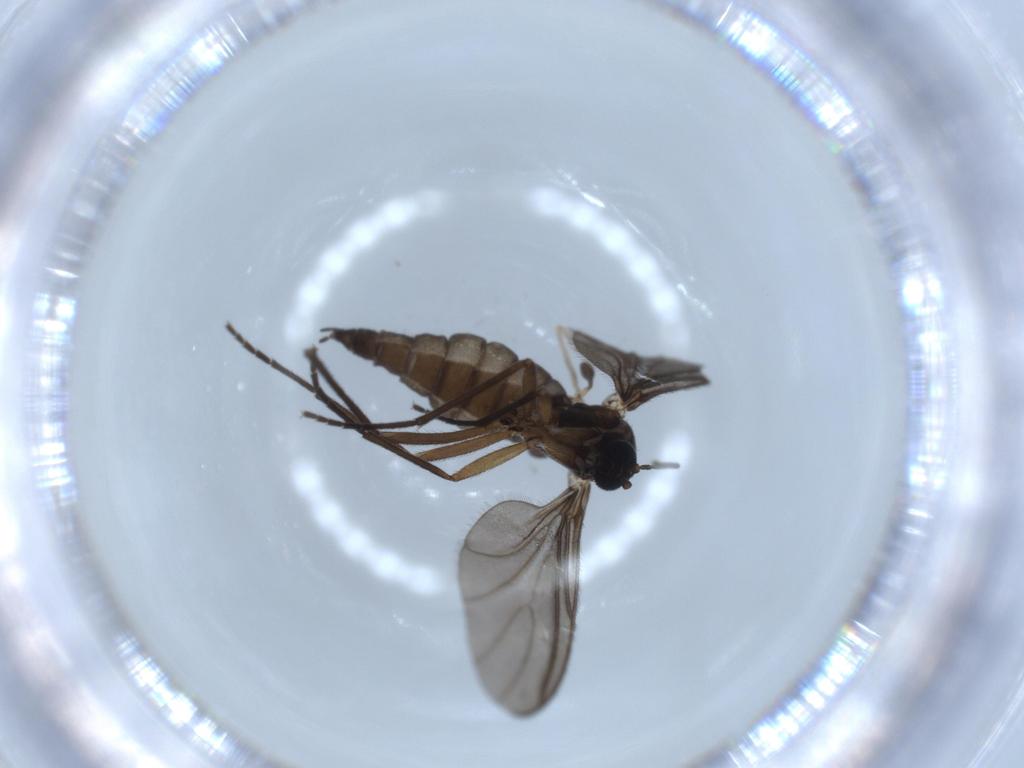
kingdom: Animalia
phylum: Arthropoda
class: Insecta
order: Diptera
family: Sciaridae
